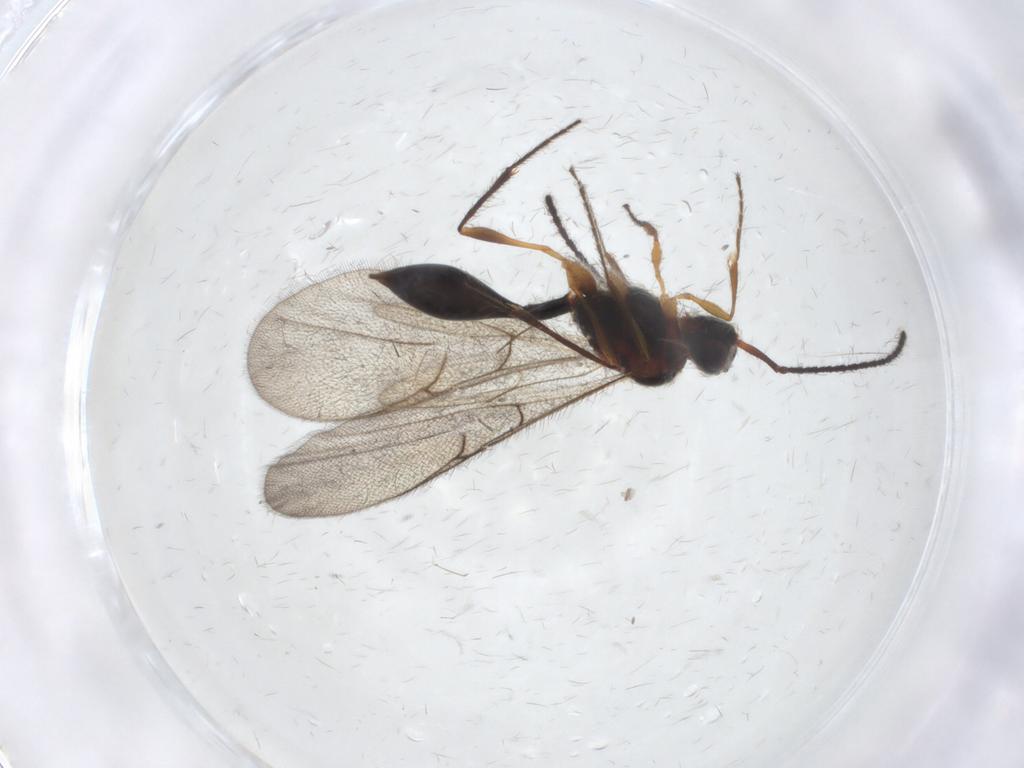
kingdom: Animalia
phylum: Arthropoda
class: Insecta
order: Hymenoptera
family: Diapriidae
